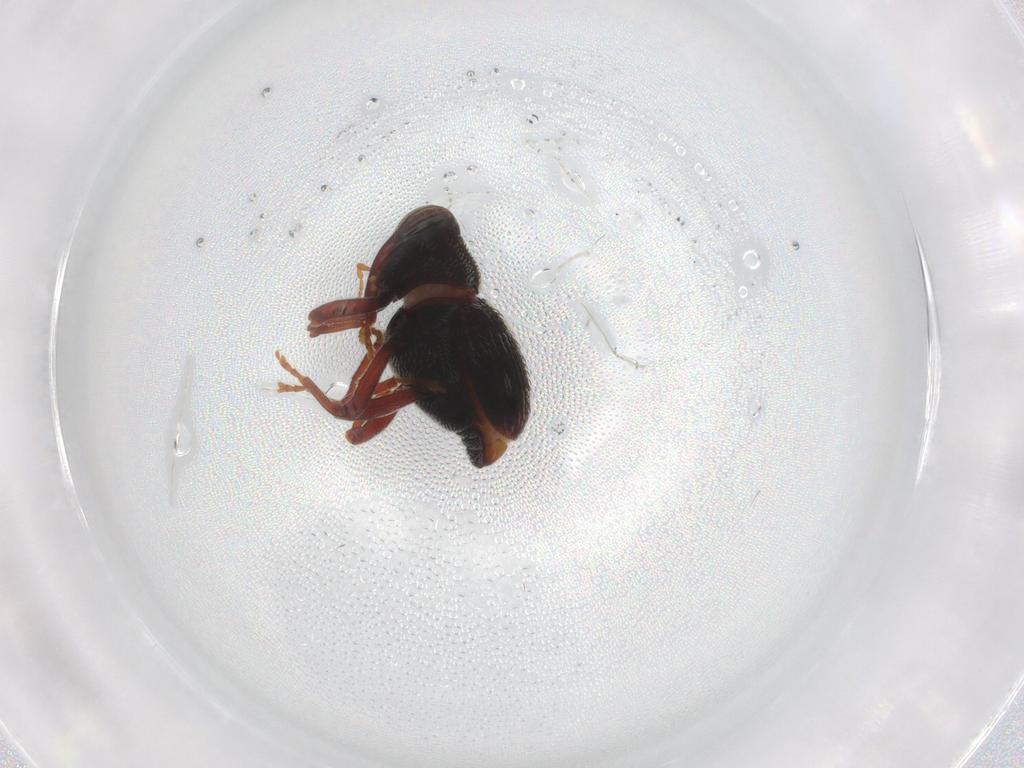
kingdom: Animalia
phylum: Arthropoda
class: Insecta
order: Coleoptera
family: Curculionidae
